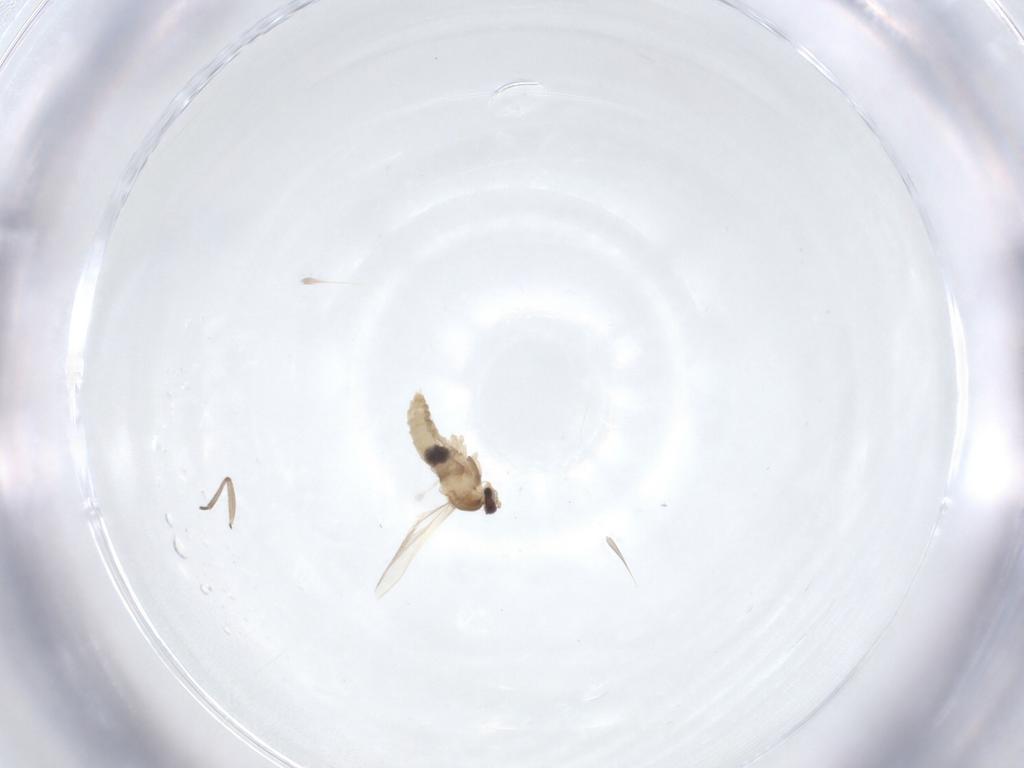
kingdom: Animalia
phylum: Arthropoda
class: Insecta
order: Diptera
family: Cecidomyiidae
